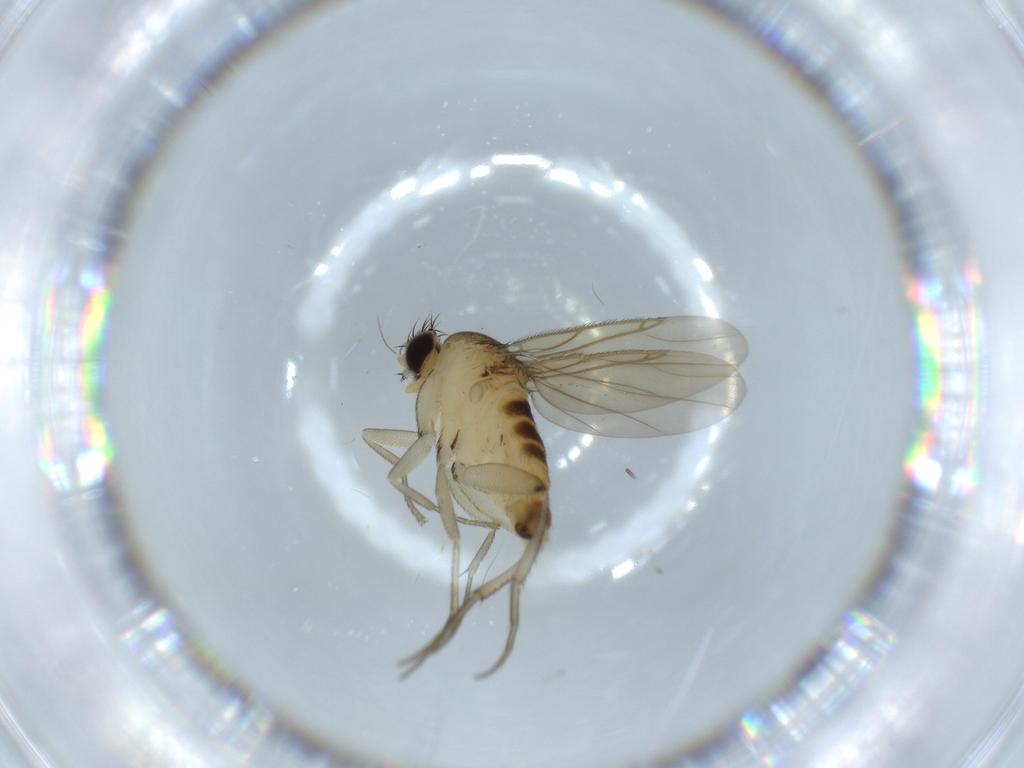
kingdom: Animalia
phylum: Arthropoda
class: Insecta
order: Diptera
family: Phoridae
